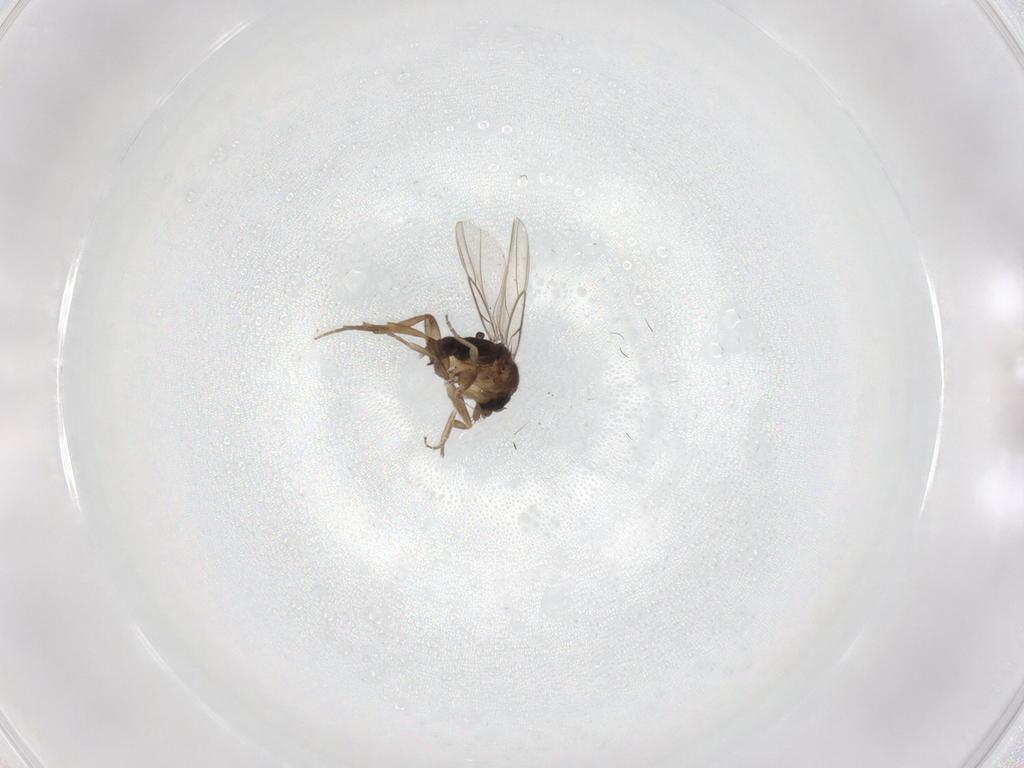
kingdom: Animalia
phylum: Arthropoda
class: Insecta
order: Diptera
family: Phoridae
